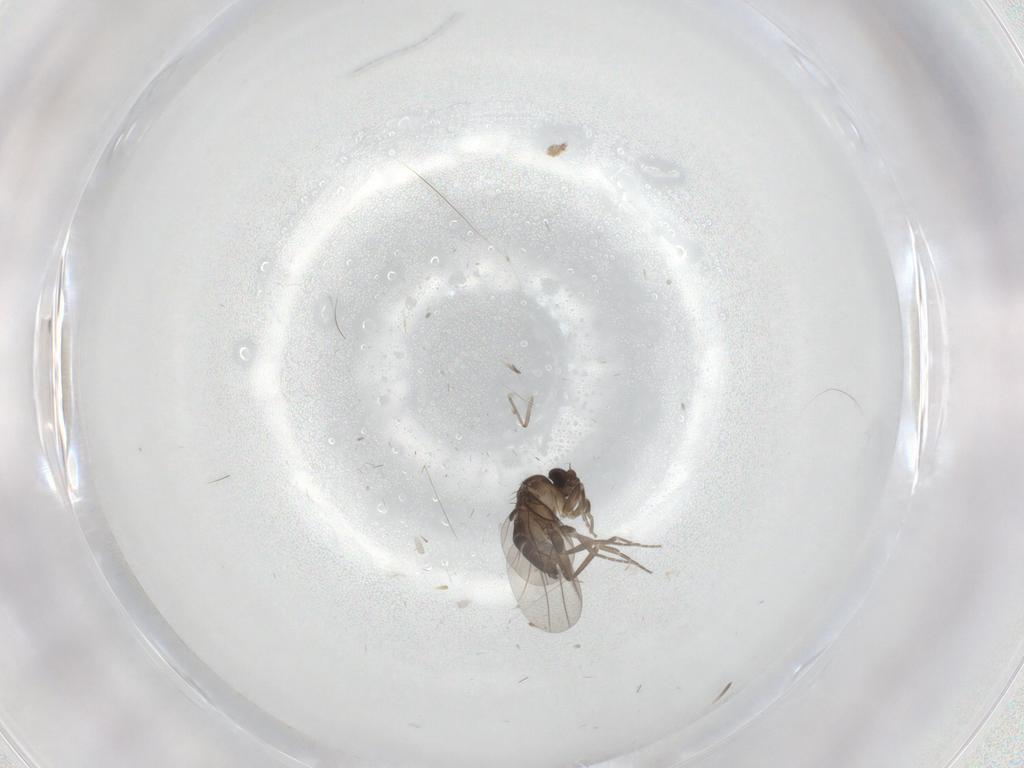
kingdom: Animalia
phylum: Arthropoda
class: Insecta
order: Diptera
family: Chironomidae
